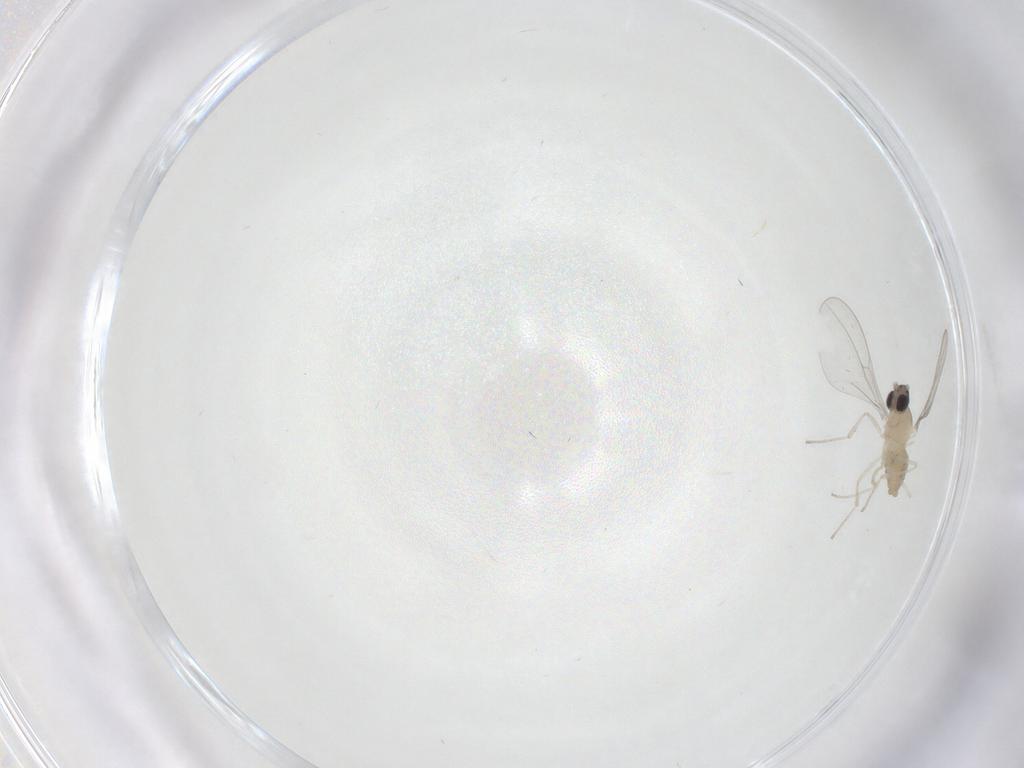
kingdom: Animalia
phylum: Arthropoda
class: Insecta
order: Diptera
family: Cecidomyiidae
